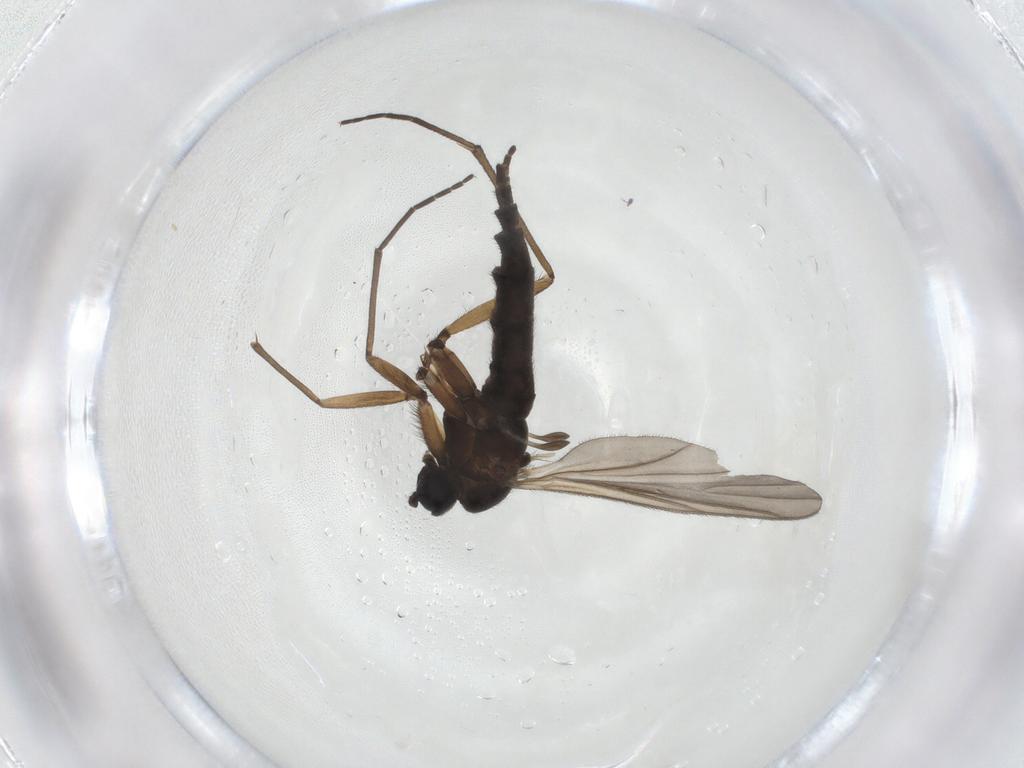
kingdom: Animalia
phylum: Arthropoda
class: Insecta
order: Diptera
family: Sciaridae
